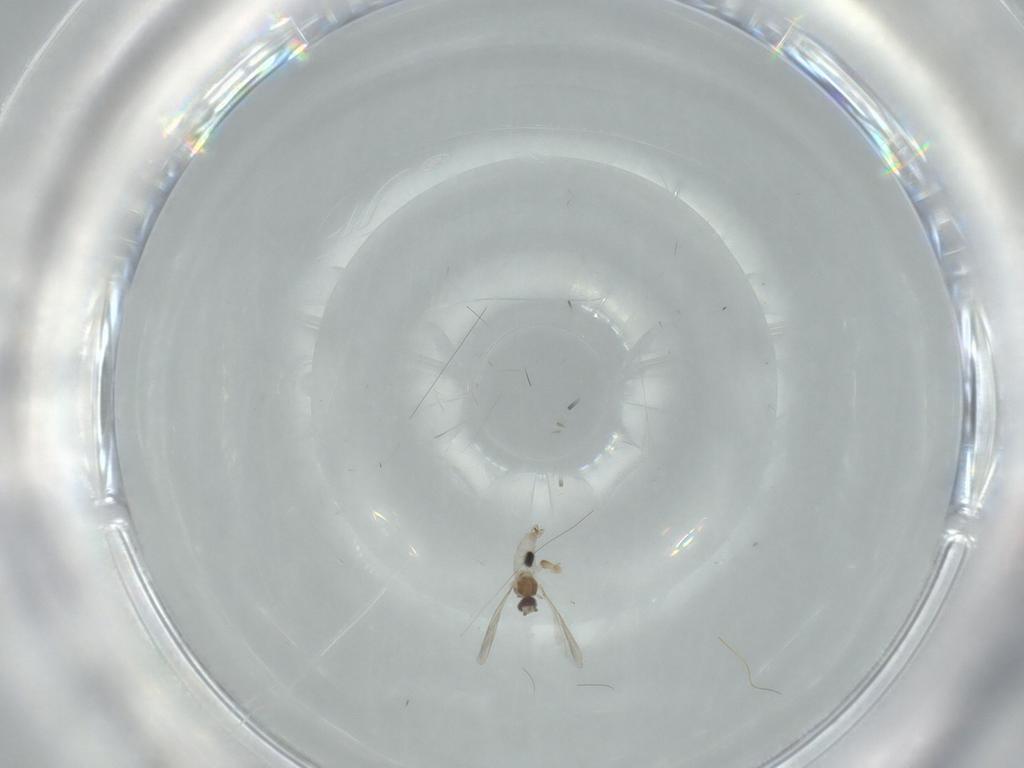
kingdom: Animalia
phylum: Arthropoda
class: Insecta
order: Diptera
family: Cecidomyiidae
